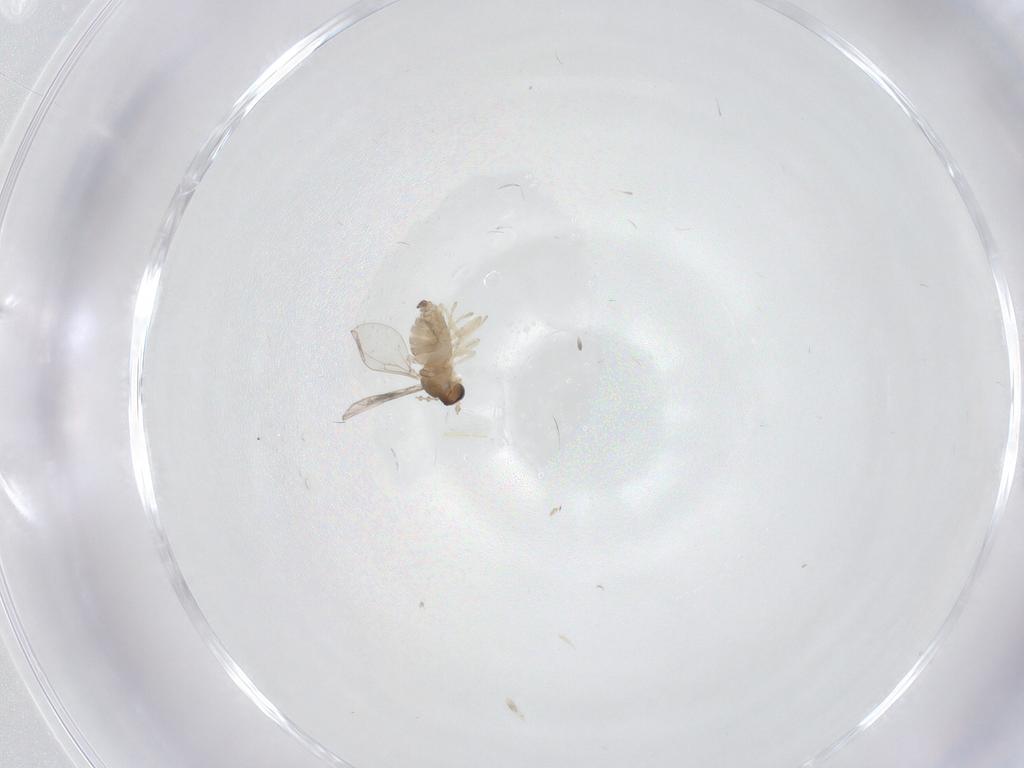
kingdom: Animalia
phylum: Arthropoda
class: Insecta
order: Diptera
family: Cecidomyiidae
